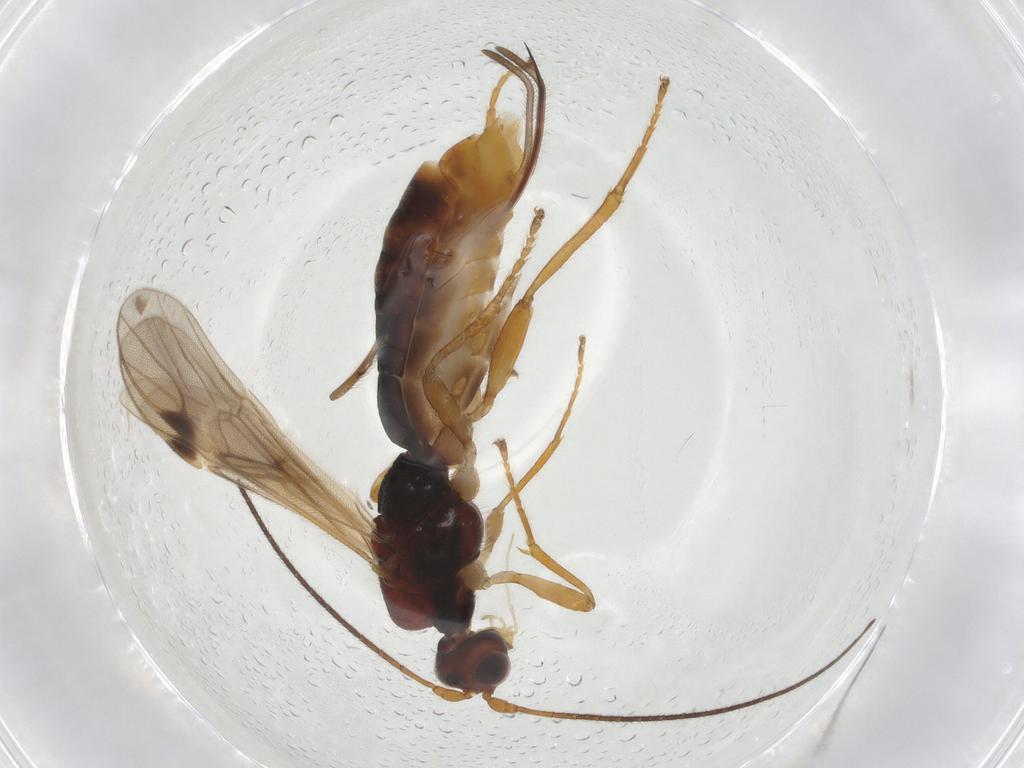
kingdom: Animalia
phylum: Arthropoda
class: Insecta
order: Hymenoptera
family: Braconidae
